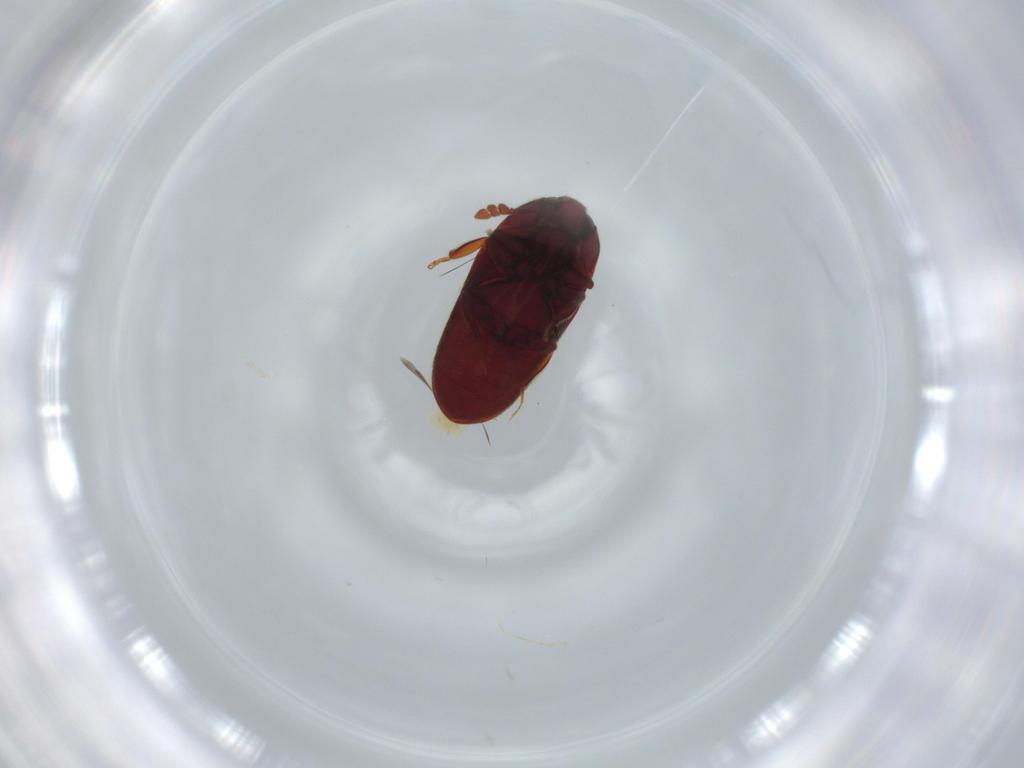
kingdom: Animalia
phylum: Arthropoda
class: Insecta
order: Coleoptera
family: Throscidae
